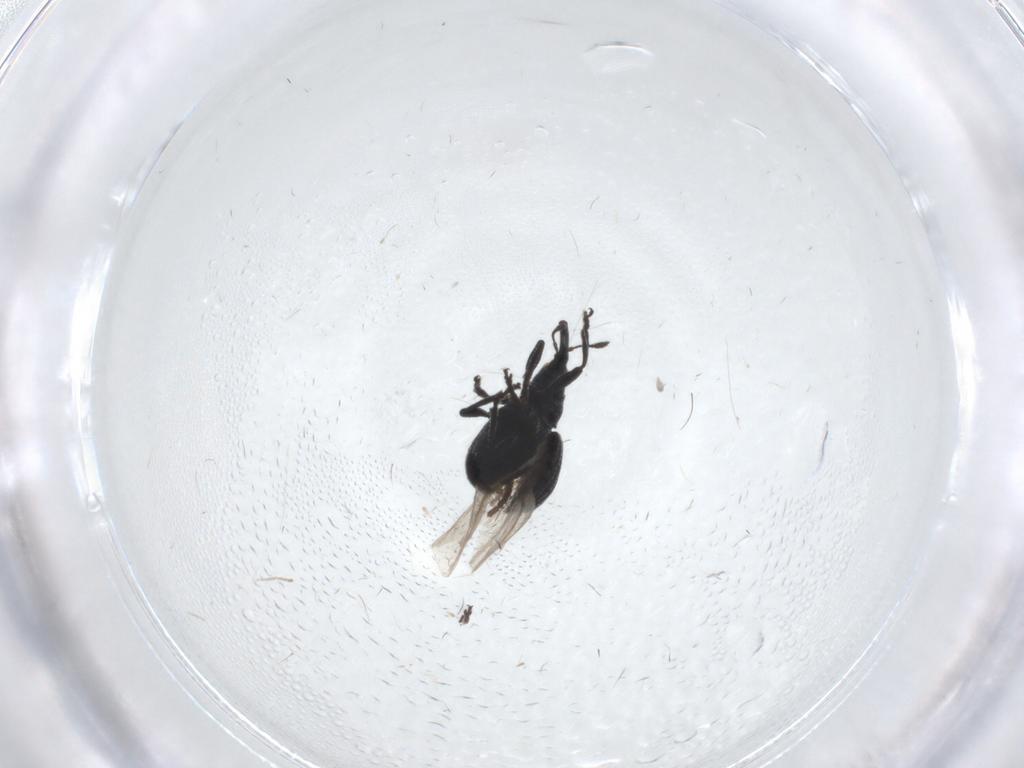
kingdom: Animalia
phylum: Arthropoda
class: Insecta
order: Coleoptera
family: Brentidae
